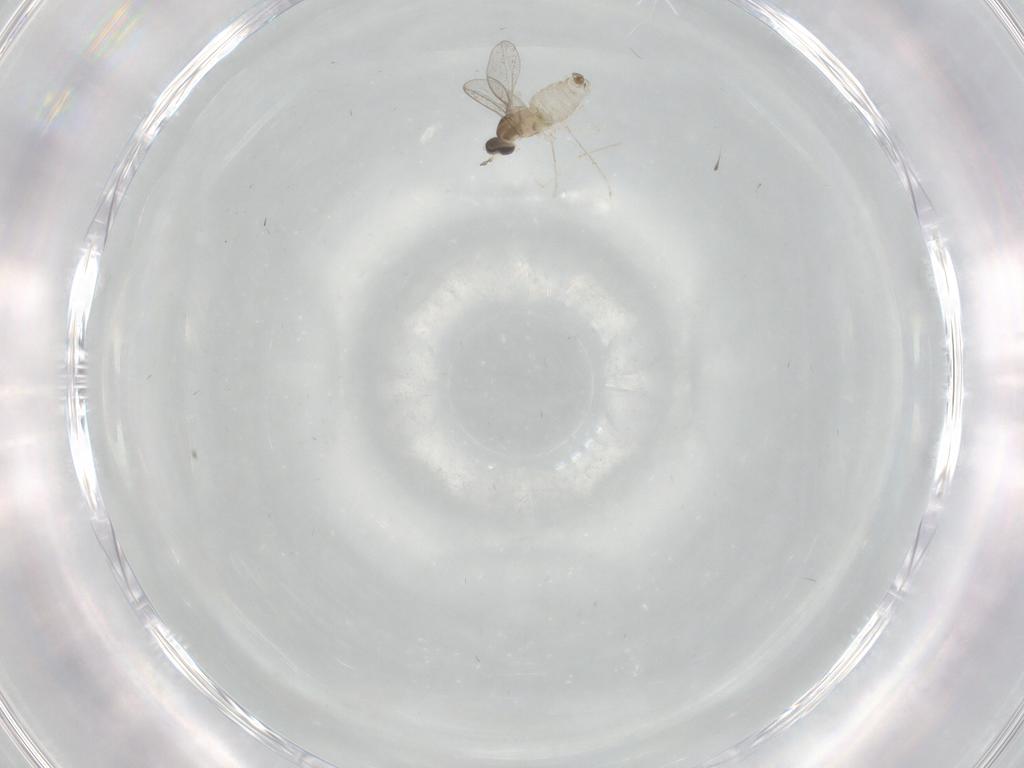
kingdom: Animalia
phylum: Arthropoda
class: Insecta
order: Diptera
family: Cecidomyiidae
